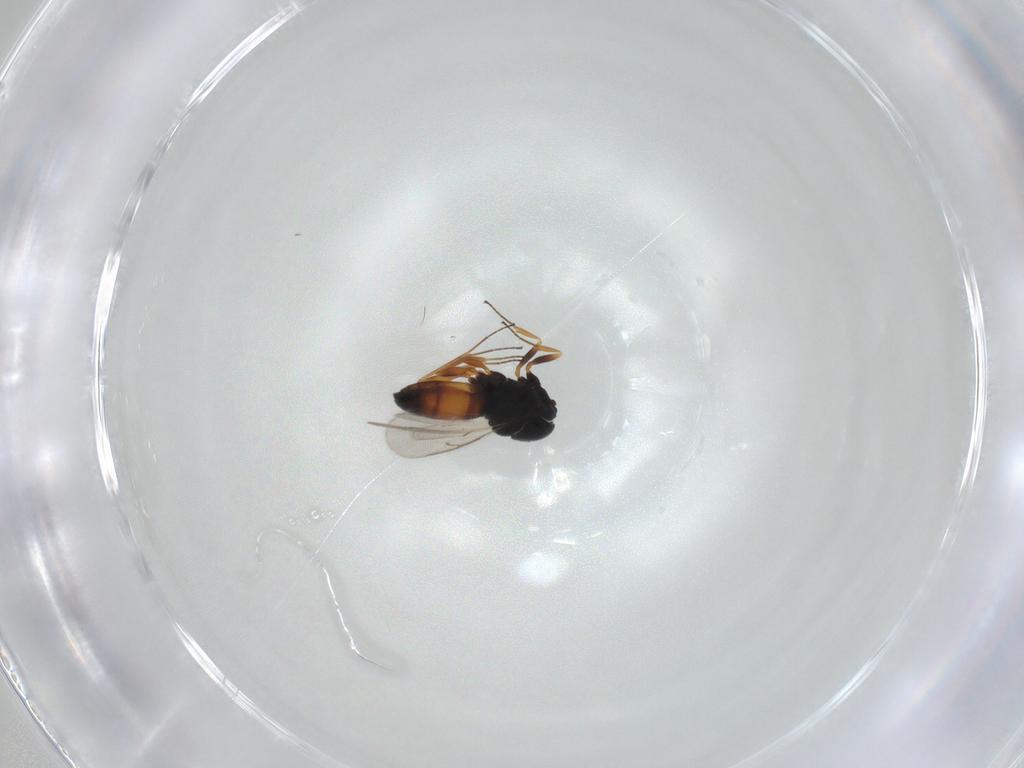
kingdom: Animalia
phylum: Arthropoda
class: Insecta
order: Hymenoptera
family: Scelionidae
